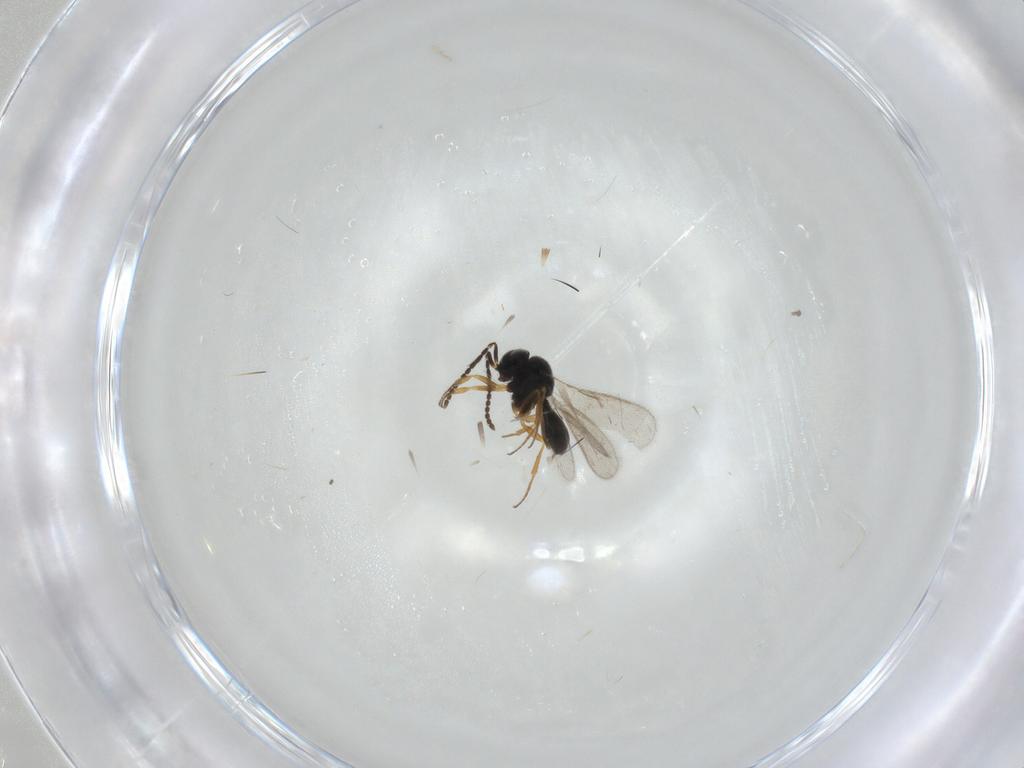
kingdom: Animalia
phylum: Arthropoda
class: Insecta
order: Hymenoptera
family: Scelionidae
